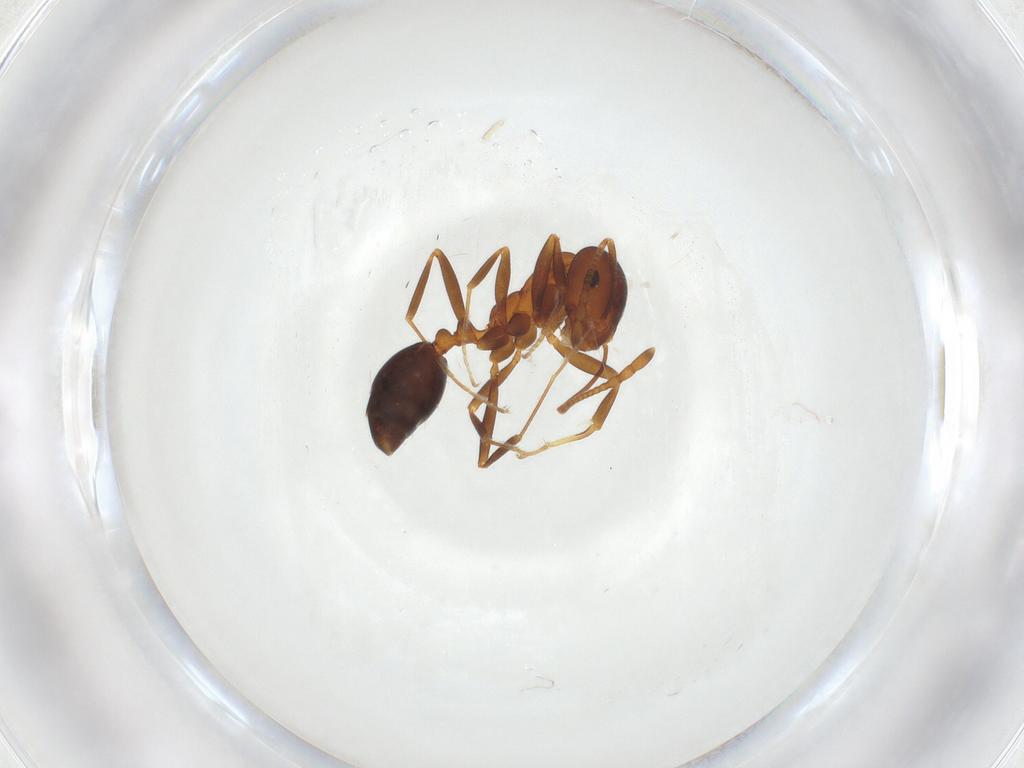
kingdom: Animalia
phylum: Arthropoda
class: Insecta
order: Hymenoptera
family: Formicidae
